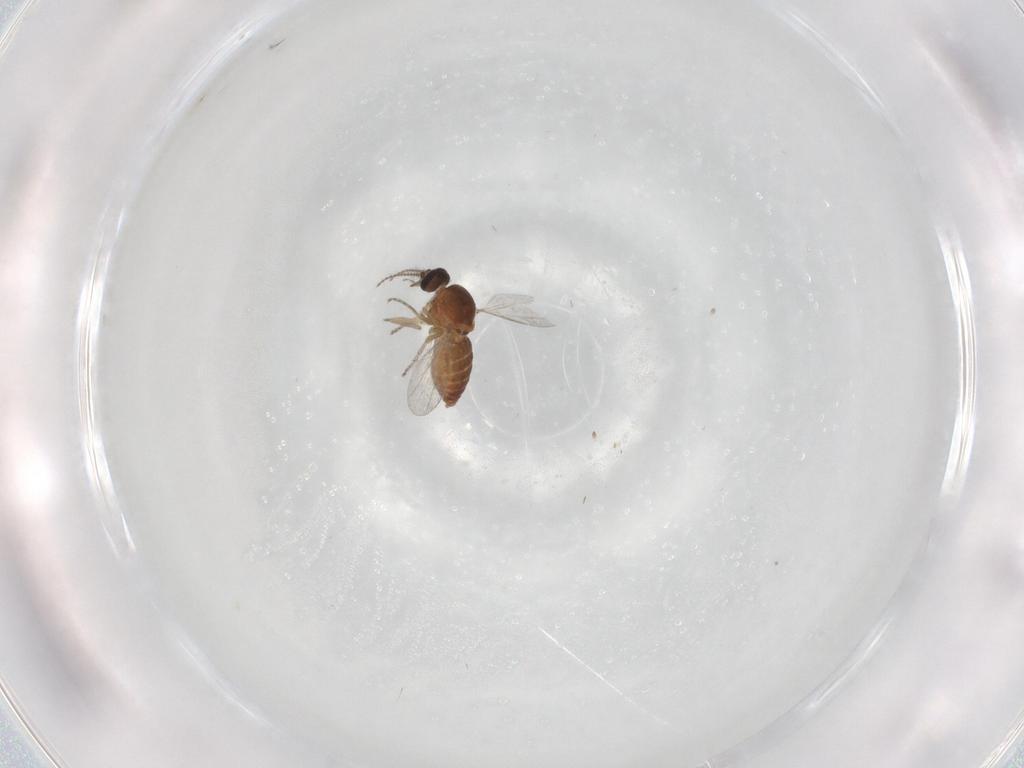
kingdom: Animalia
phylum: Arthropoda
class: Insecta
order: Diptera
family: Ceratopogonidae
